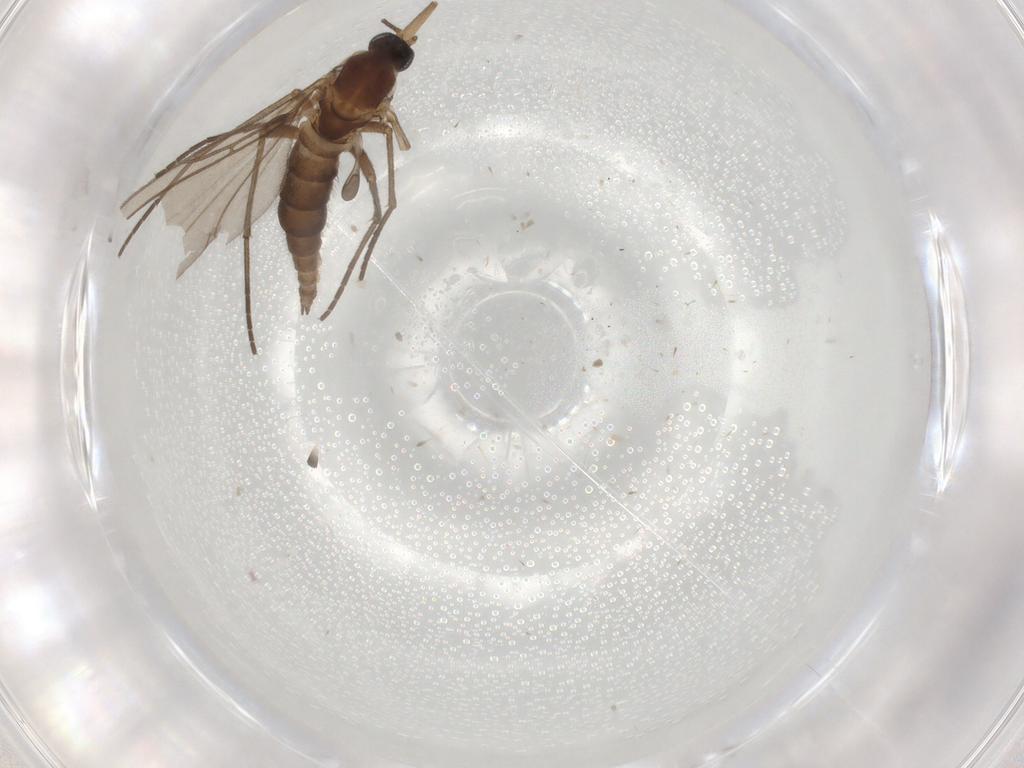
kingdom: Animalia
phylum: Arthropoda
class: Insecta
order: Diptera
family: Sciaridae
